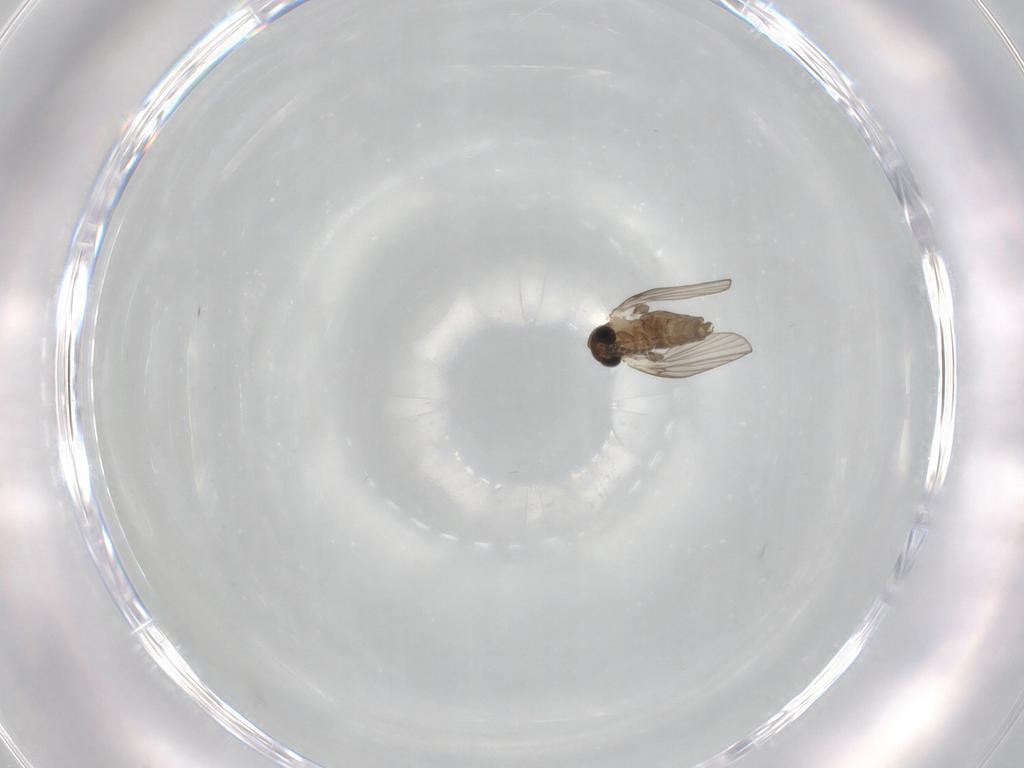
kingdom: Animalia
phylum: Arthropoda
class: Insecta
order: Diptera
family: Psychodidae
